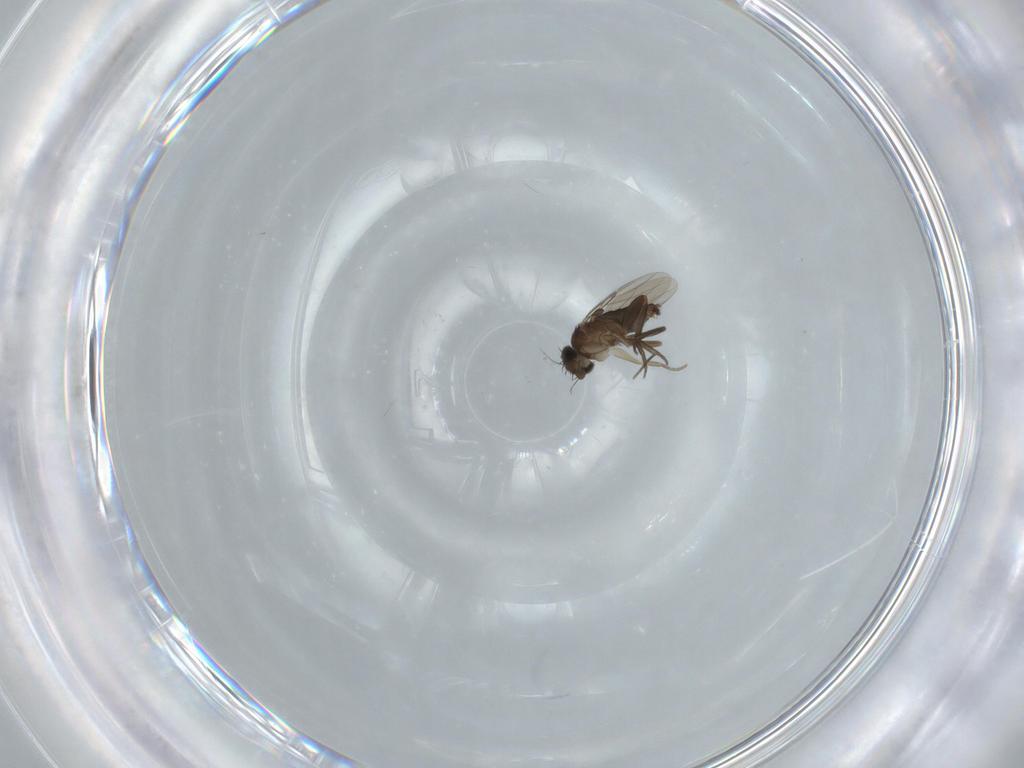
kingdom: Animalia
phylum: Arthropoda
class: Insecta
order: Diptera
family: Phoridae
